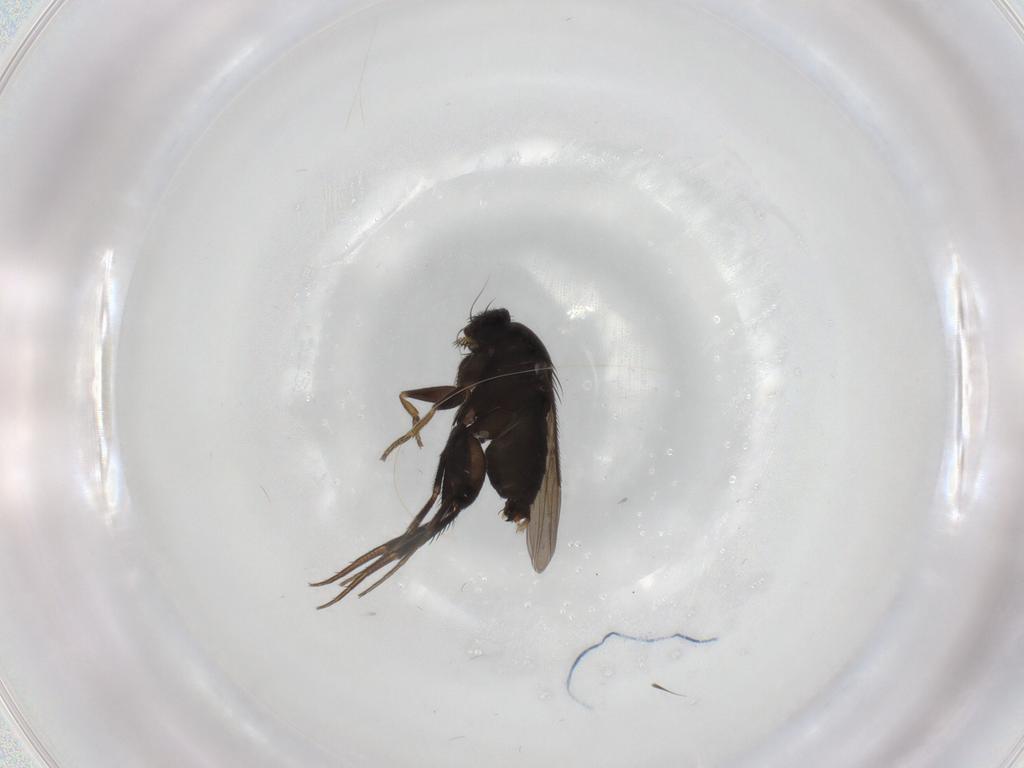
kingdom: Animalia
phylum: Arthropoda
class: Insecta
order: Diptera
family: Phoridae
